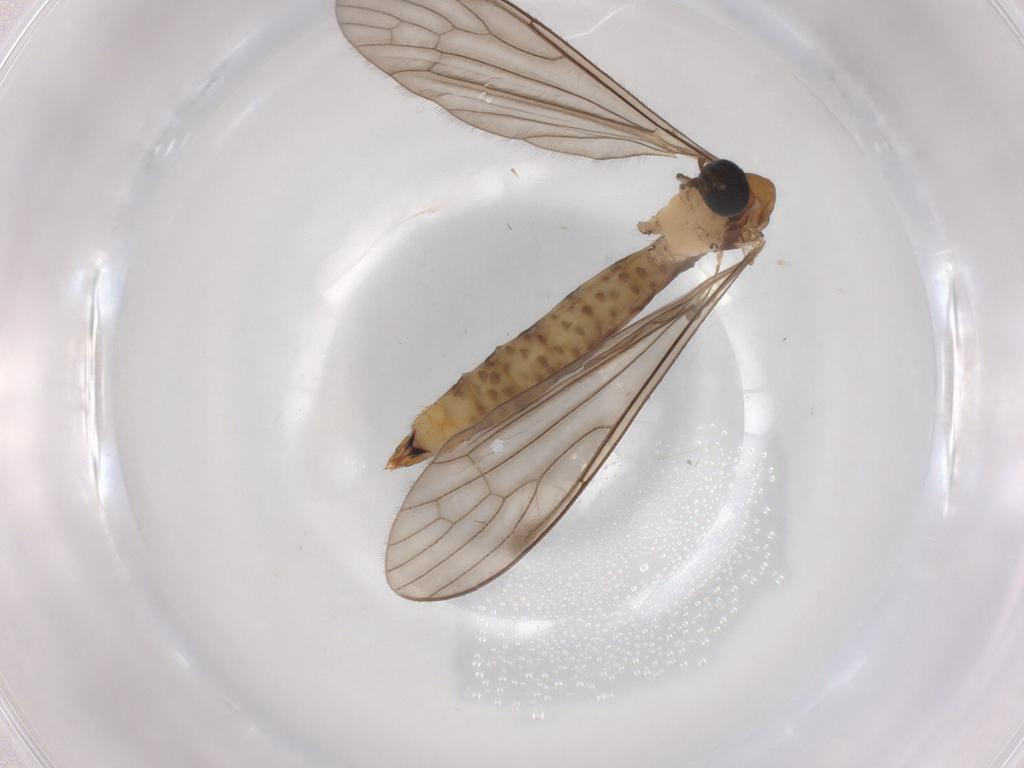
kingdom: Animalia
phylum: Arthropoda
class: Insecta
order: Diptera
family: Limoniidae
